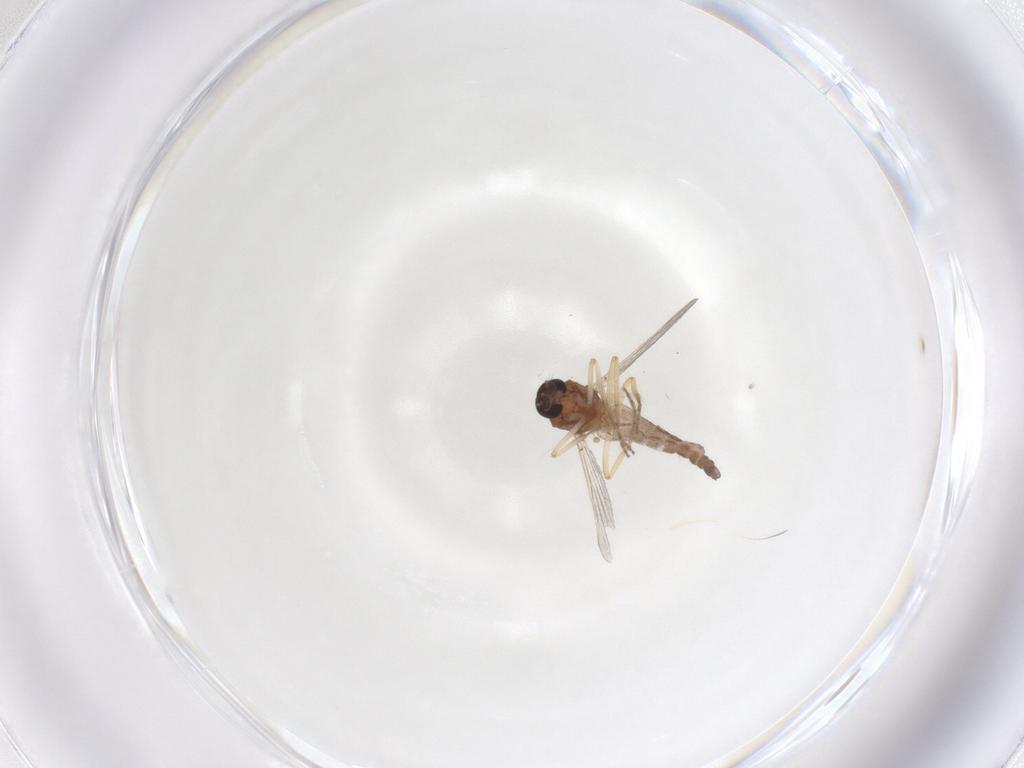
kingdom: Animalia
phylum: Arthropoda
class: Insecta
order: Diptera
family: Ceratopogonidae
